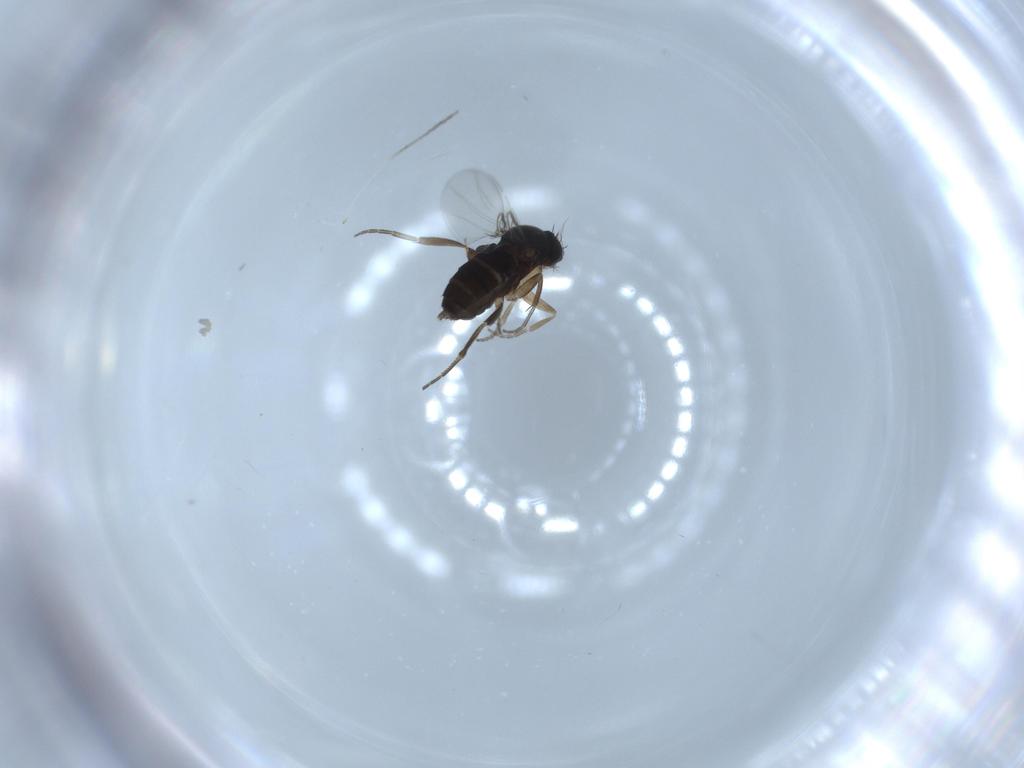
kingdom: Animalia
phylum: Arthropoda
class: Insecta
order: Diptera
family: Phoridae
